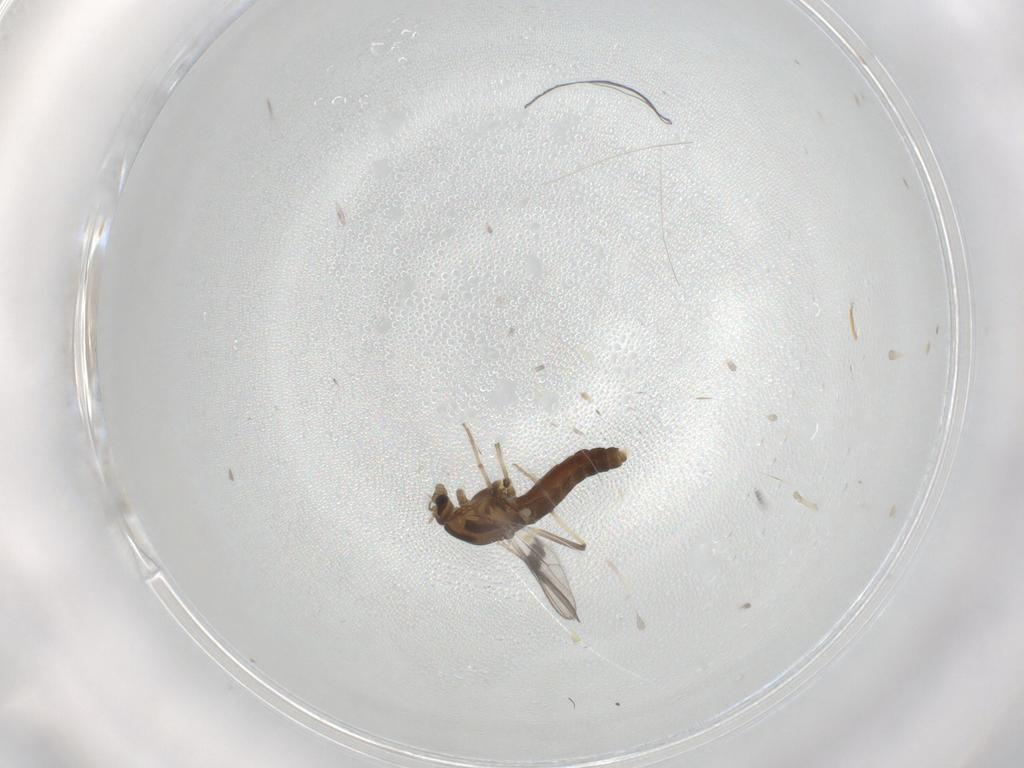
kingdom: Animalia
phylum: Arthropoda
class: Insecta
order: Diptera
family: Chironomidae
